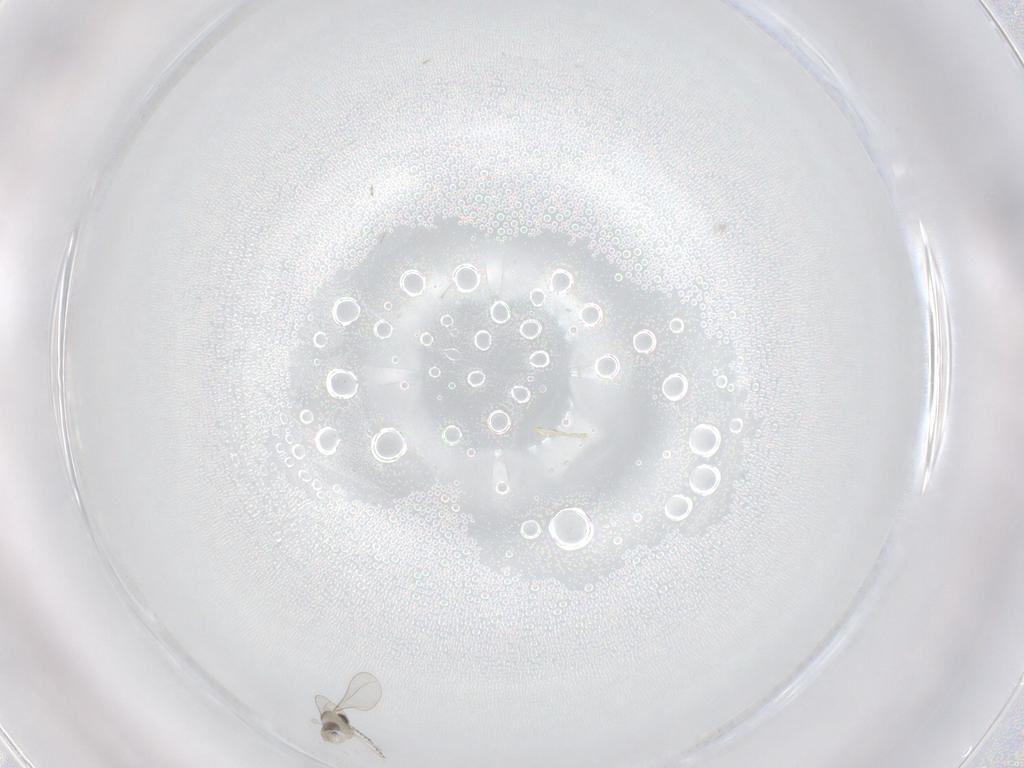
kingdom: Animalia
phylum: Arthropoda
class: Insecta
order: Diptera
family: Cecidomyiidae
